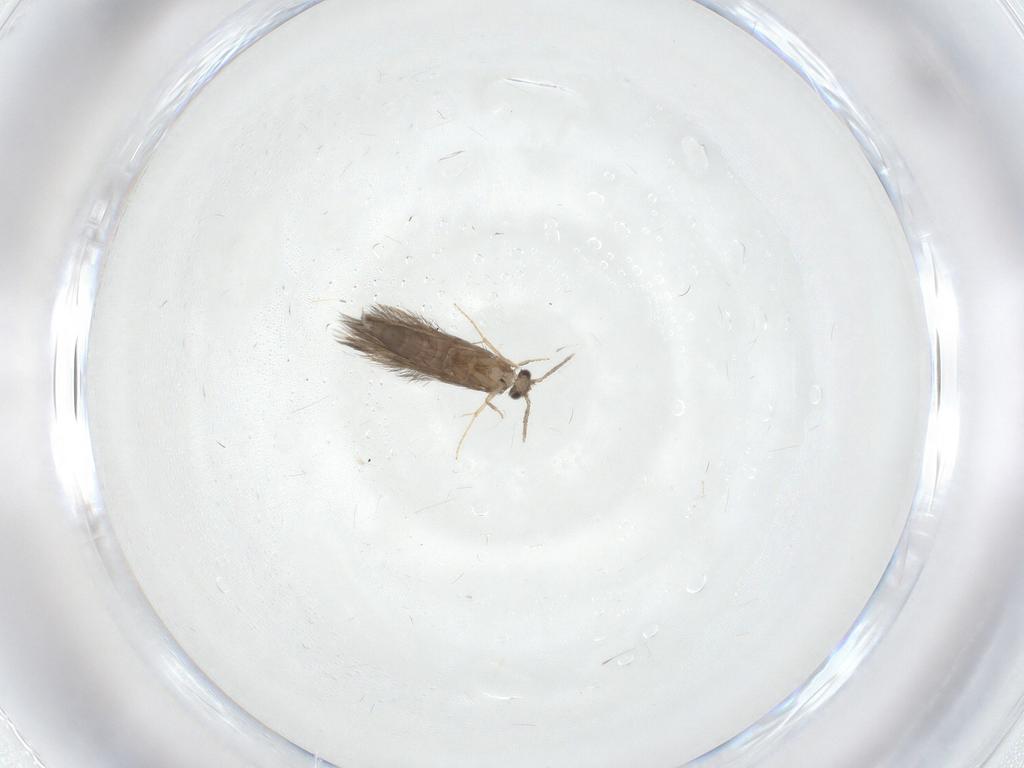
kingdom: Animalia
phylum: Arthropoda
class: Insecta
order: Trichoptera
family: Hydroptilidae
